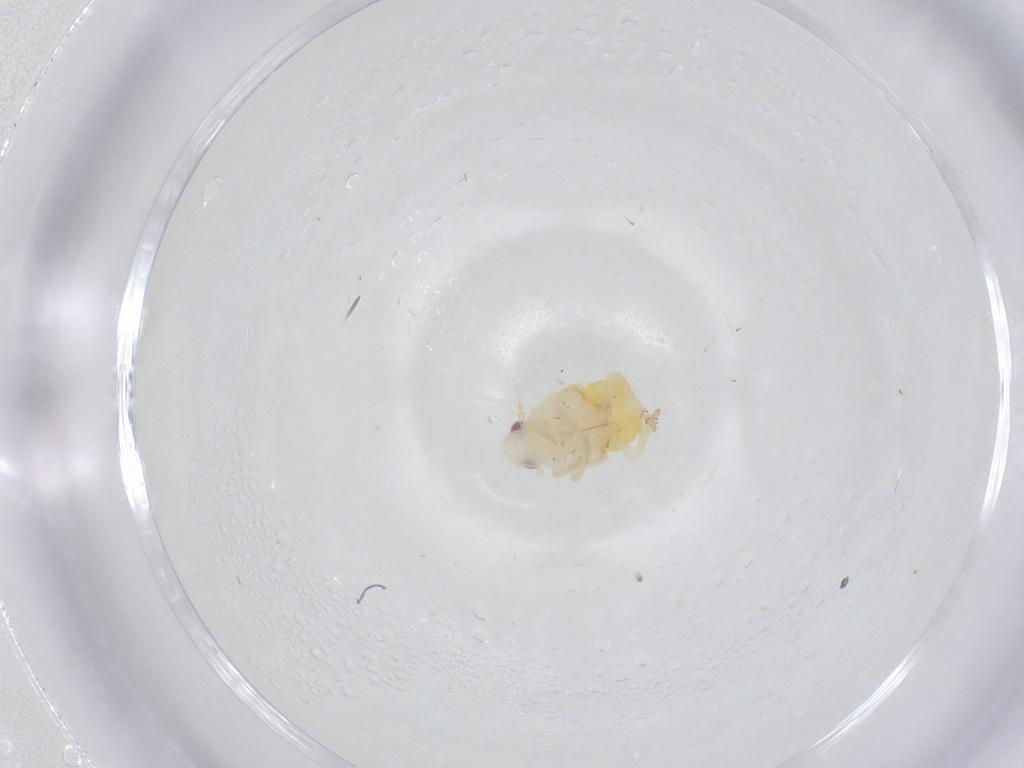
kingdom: Animalia
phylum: Arthropoda
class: Insecta
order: Hemiptera
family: Fulgoroidea_incertae_sedis
